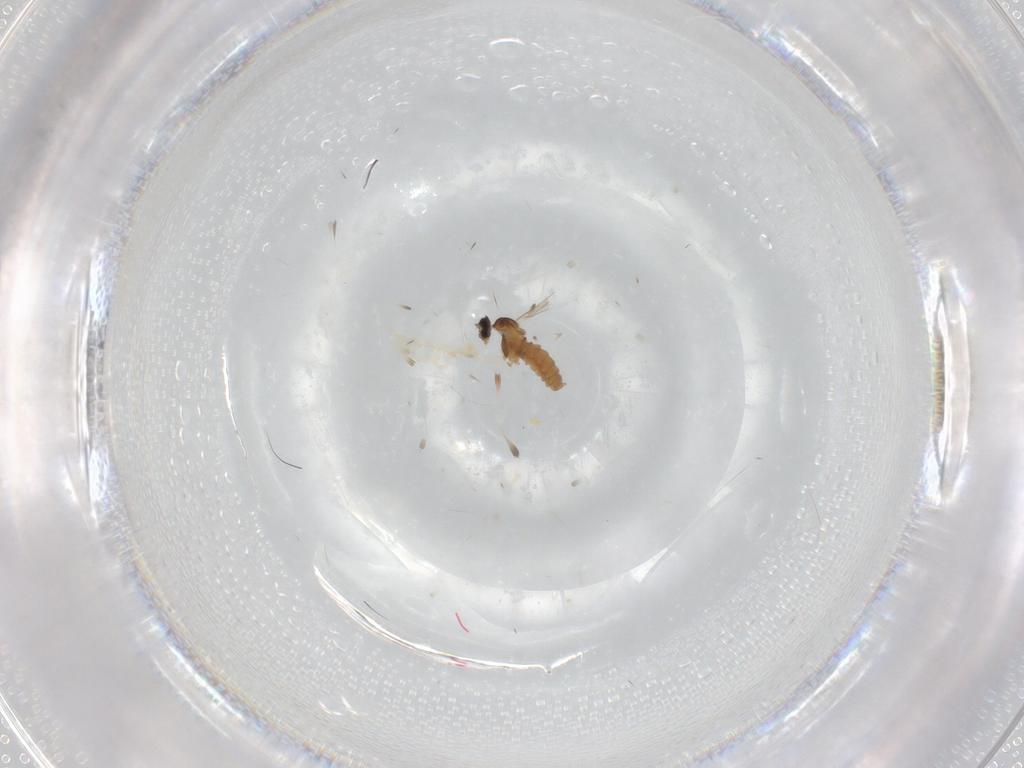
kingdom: Animalia
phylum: Arthropoda
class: Insecta
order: Diptera
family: Cecidomyiidae
